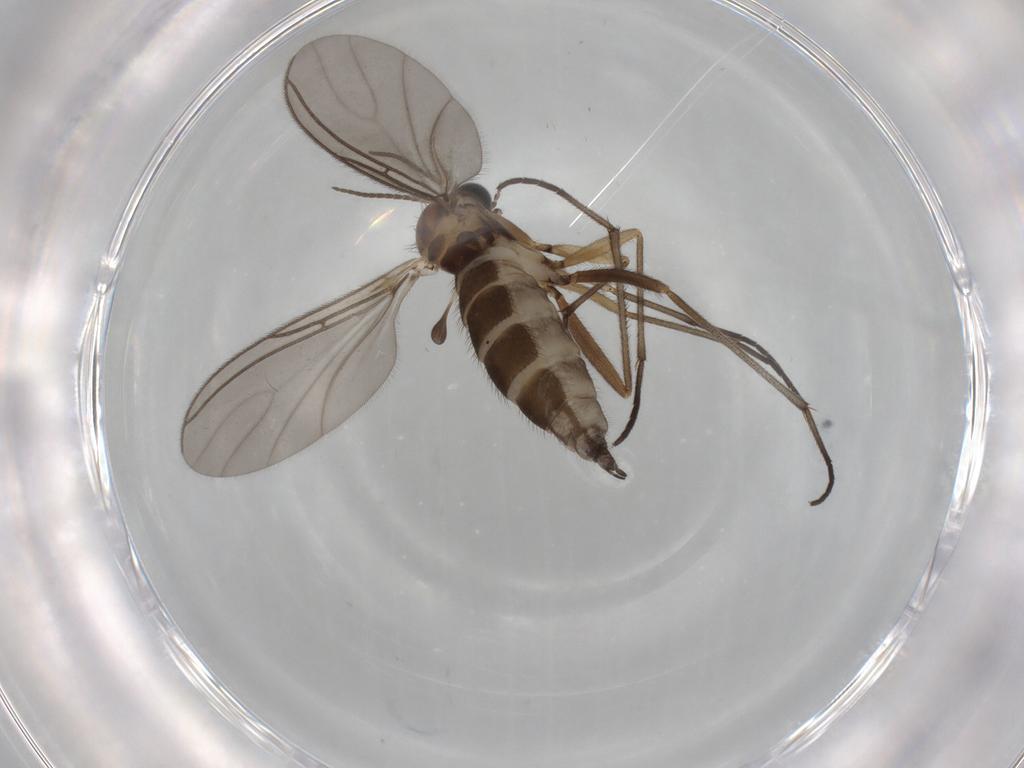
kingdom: Animalia
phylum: Arthropoda
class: Insecta
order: Diptera
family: Sciaridae
